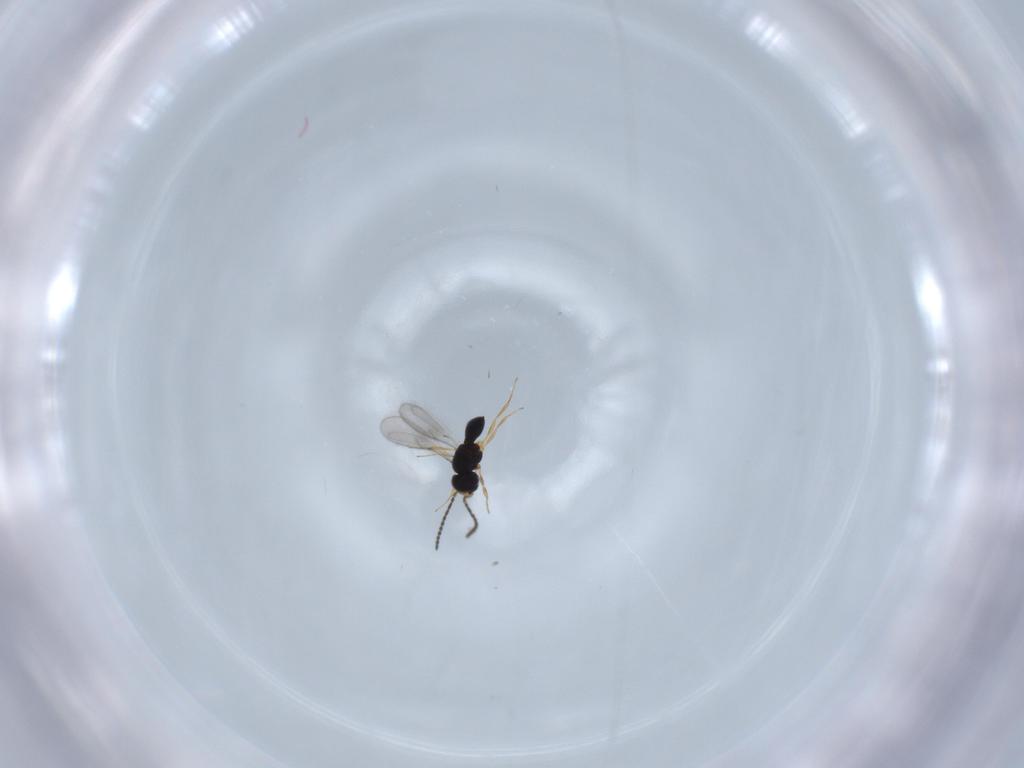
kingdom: Animalia
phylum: Arthropoda
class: Insecta
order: Hymenoptera
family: Scelionidae
